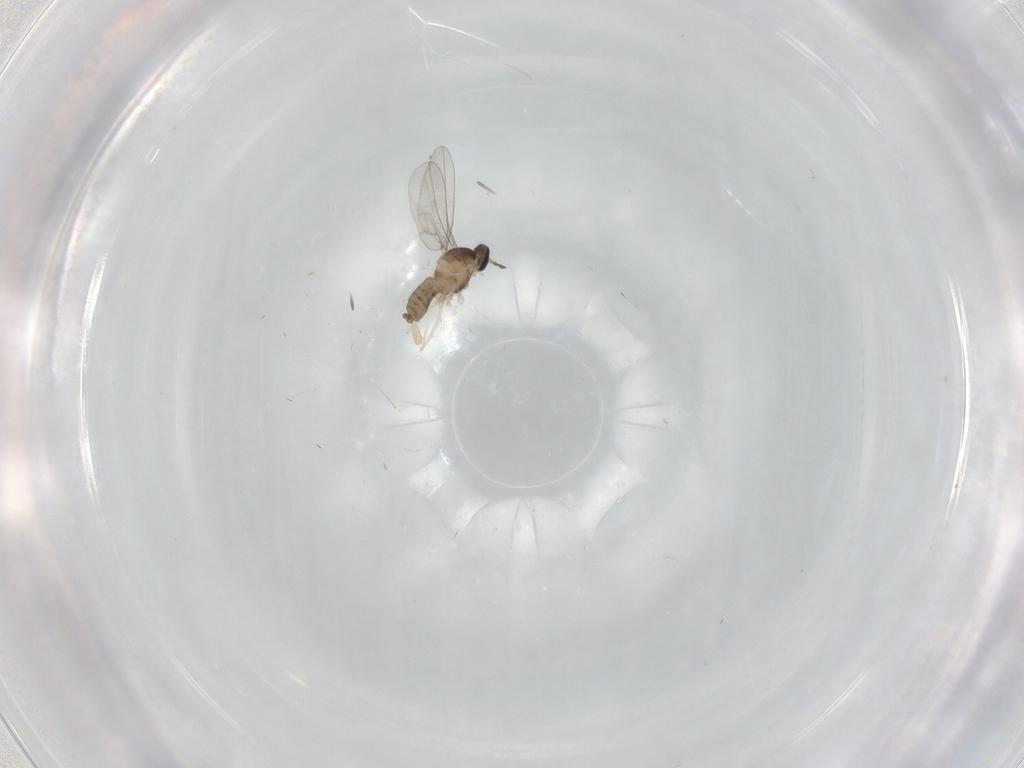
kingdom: Animalia
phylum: Arthropoda
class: Insecta
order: Diptera
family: Cecidomyiidae
